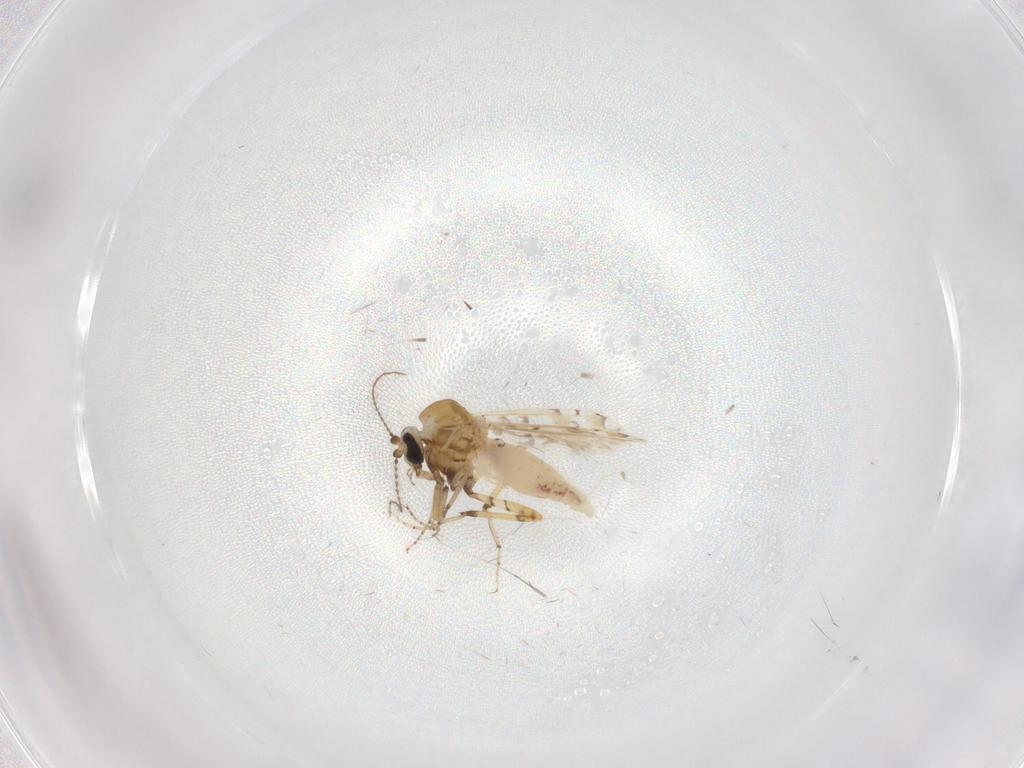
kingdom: Animalia
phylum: Arthropoda
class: Insecta
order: Diptera
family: Ceratopogonidae
